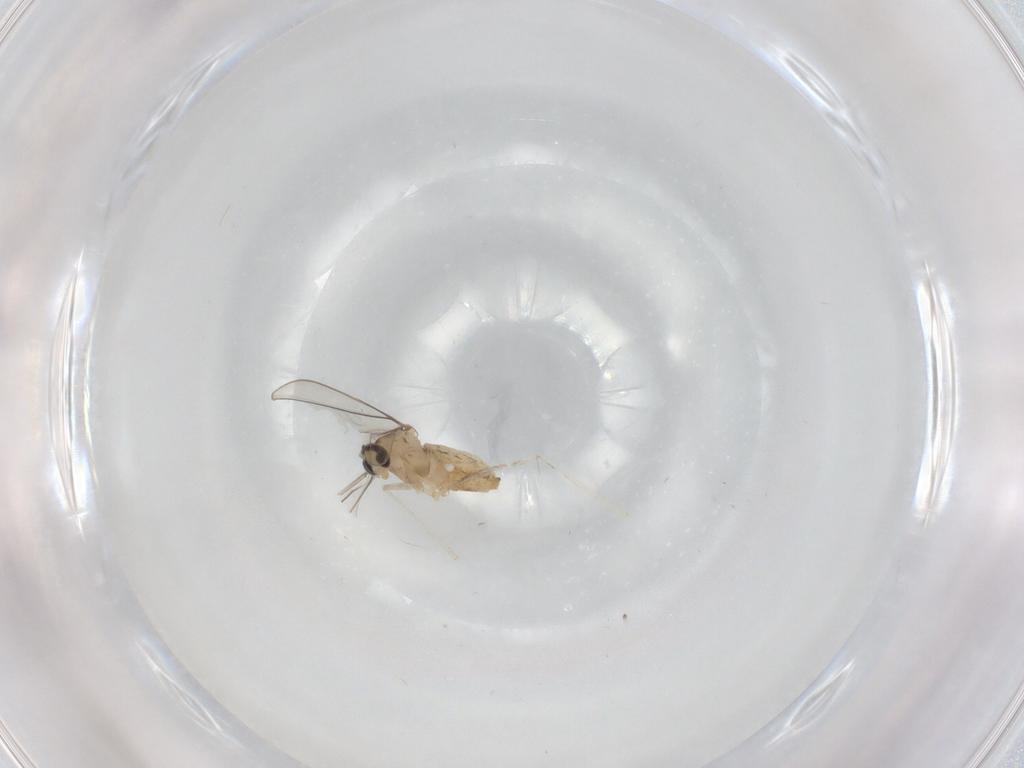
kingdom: Animalia
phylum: Arthropoda
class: Insecta
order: Diptera
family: Cecidomyiidae
